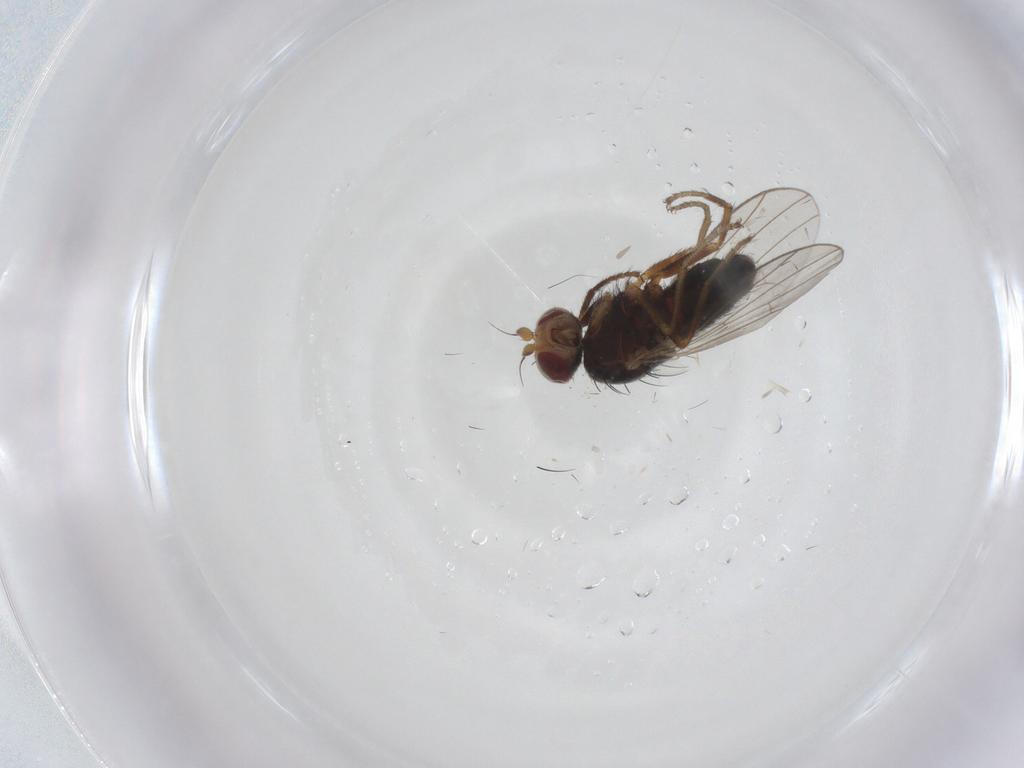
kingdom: Animalia
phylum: Arthropoda
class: Insecta
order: Diptera
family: Heleomyzidae
